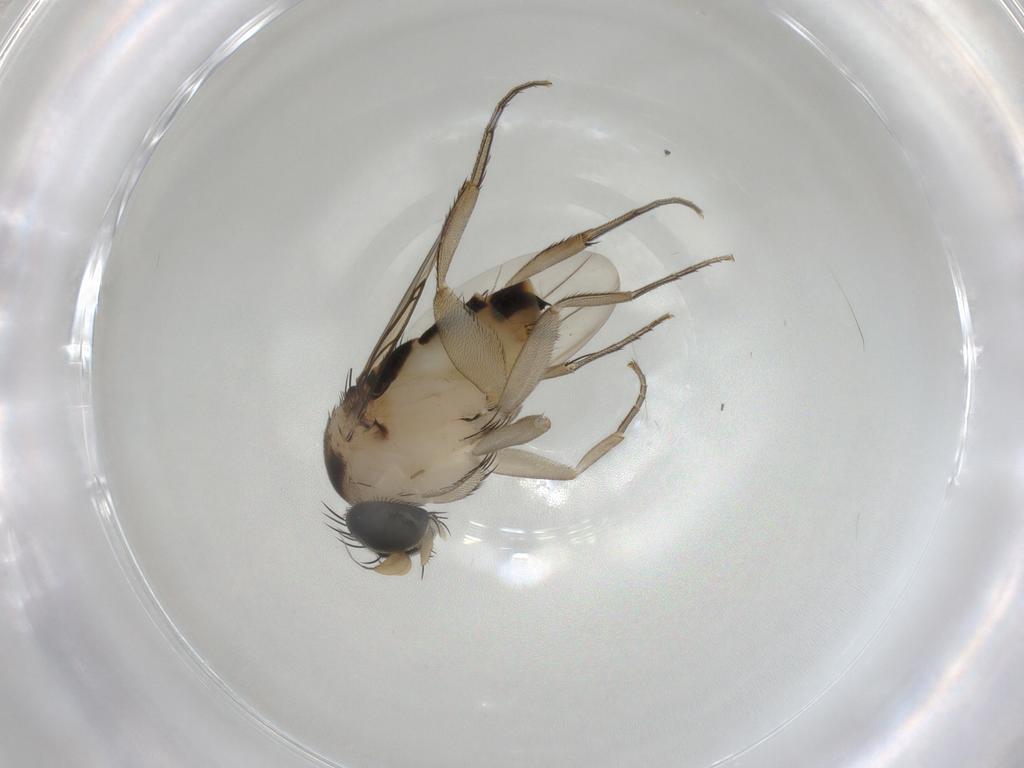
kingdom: Animalia
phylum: Arthropoda
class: Insecta
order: Diptera
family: Phoridae
